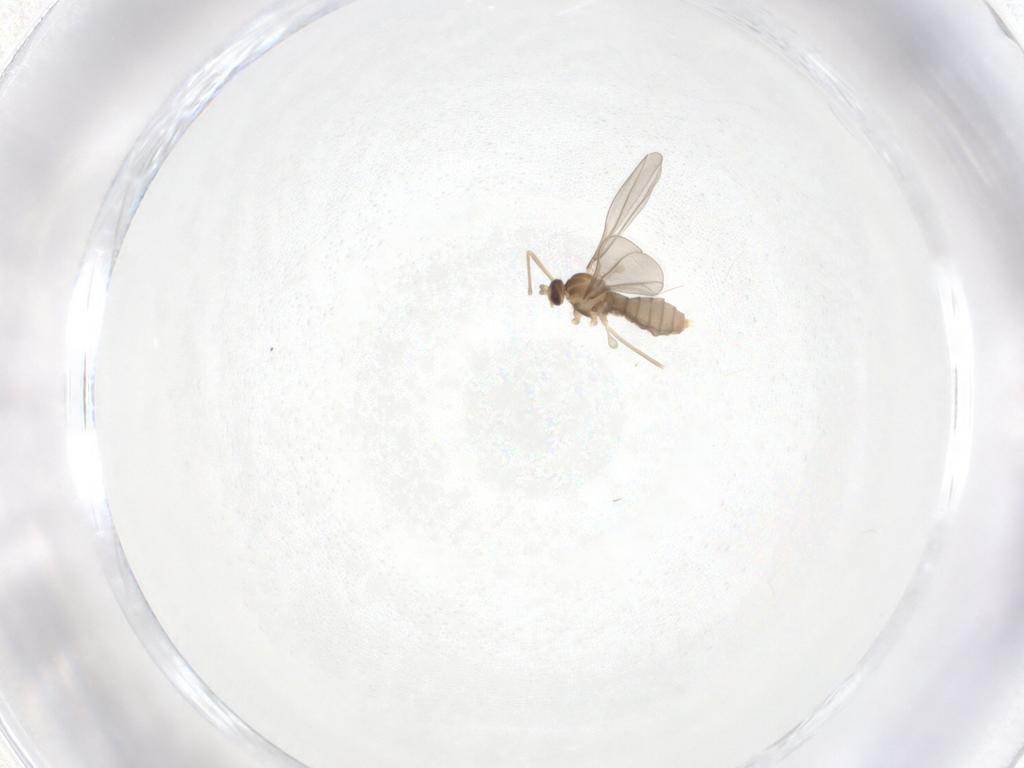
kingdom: Animalia
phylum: Arthropoda
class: Insecta
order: Diptera
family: Cecidomyiidae
